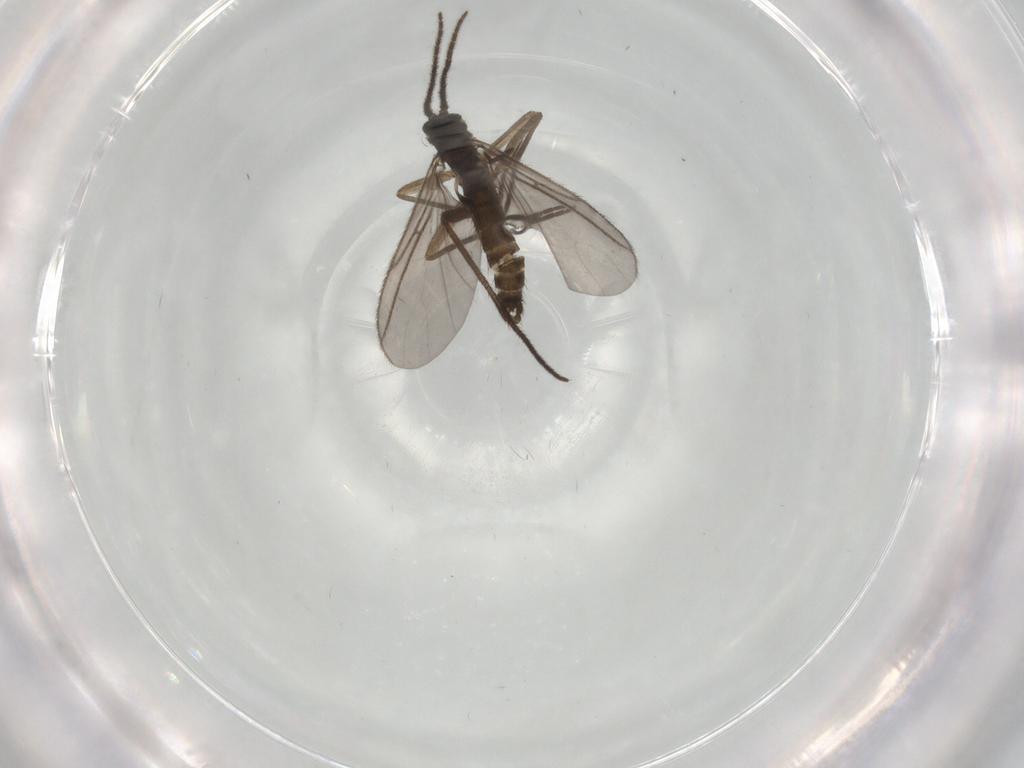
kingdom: Animalia
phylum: Arthropoda
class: Insecta
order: Diptera
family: Sciaridae
